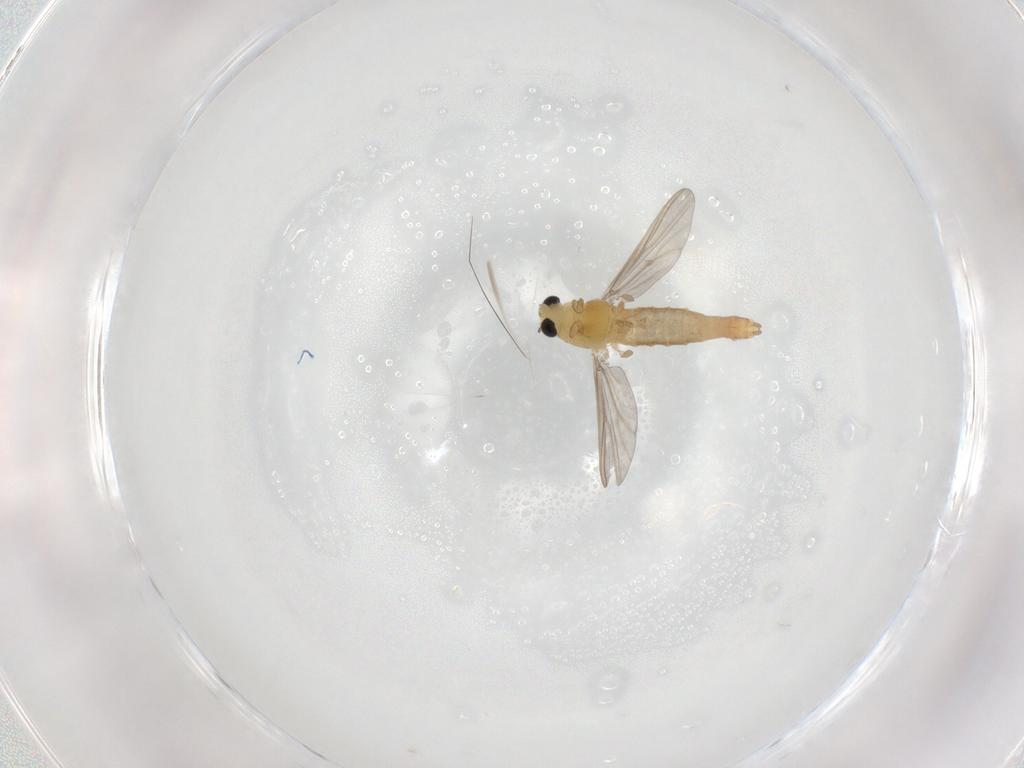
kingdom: Animalia
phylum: Arthropoda
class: Insecta
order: Diptera
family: Chironomidae
